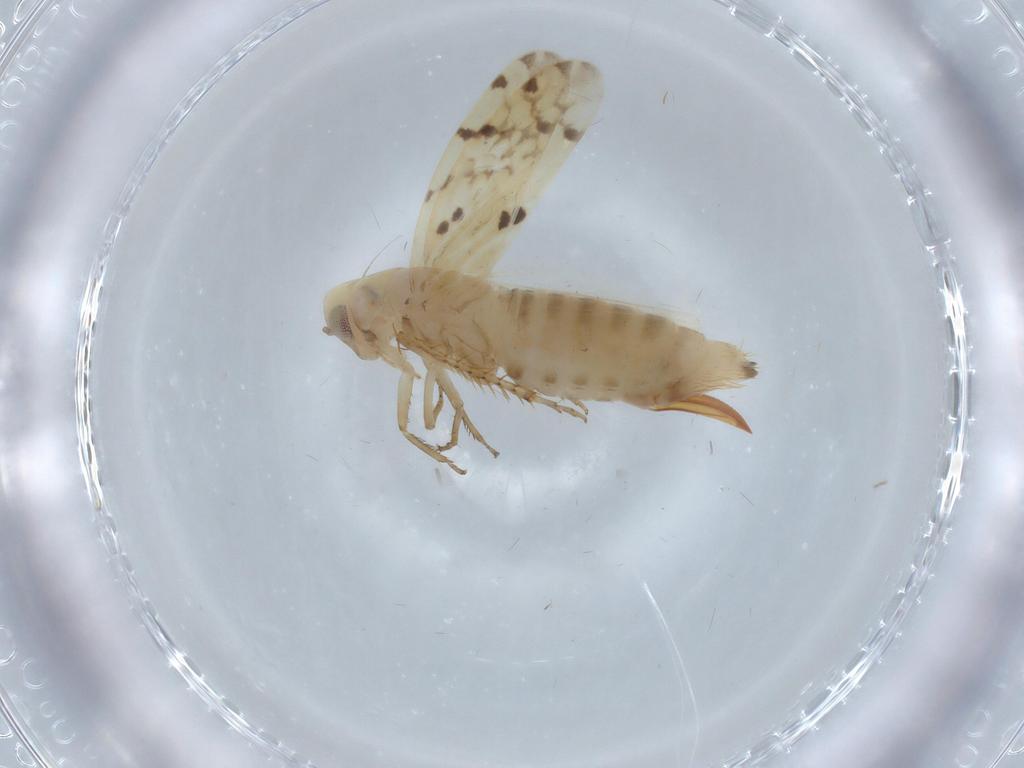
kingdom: Animalia
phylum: Arthropoda
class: Insecta
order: Hemiptera
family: Cicadellidae
